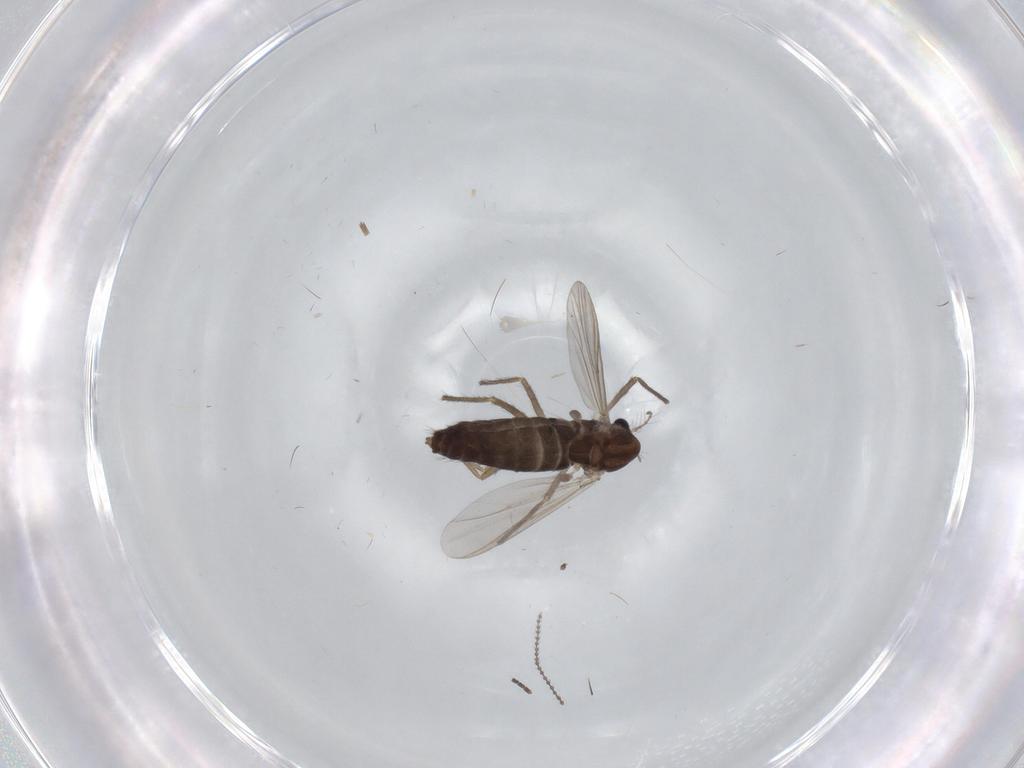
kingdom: Animalia
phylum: Arthropoda
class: Insecta
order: Diptera
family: Chironomidae
